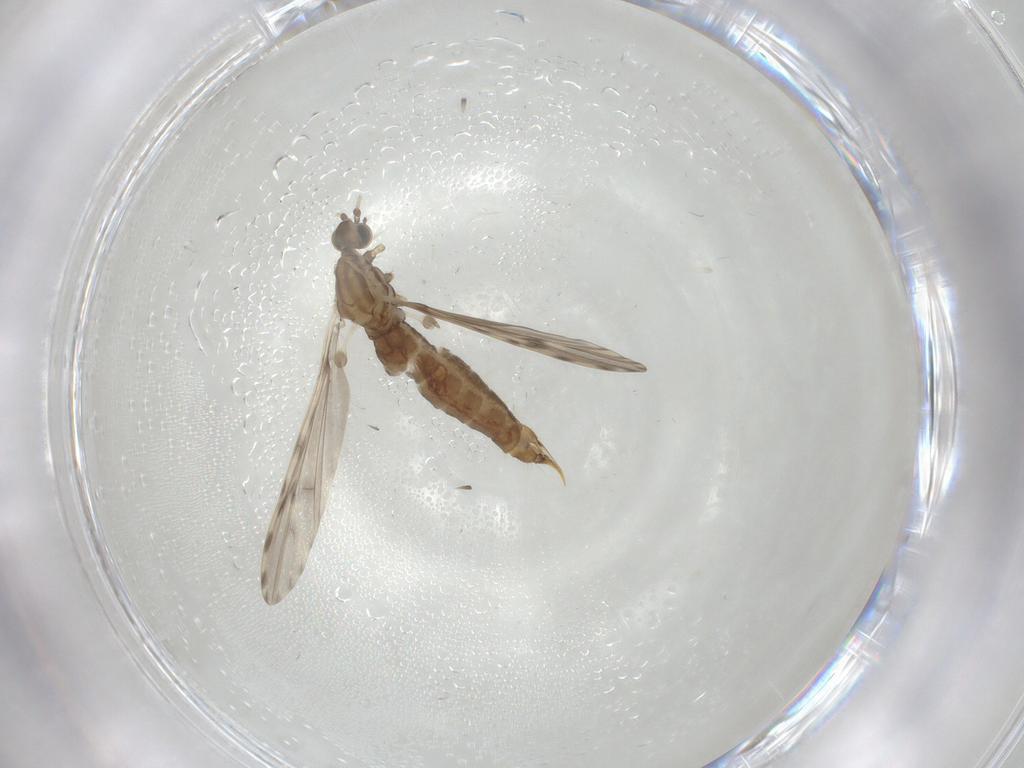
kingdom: Animalia
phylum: Arthropoda
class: Insecta
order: Diptera
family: Limoniidae
